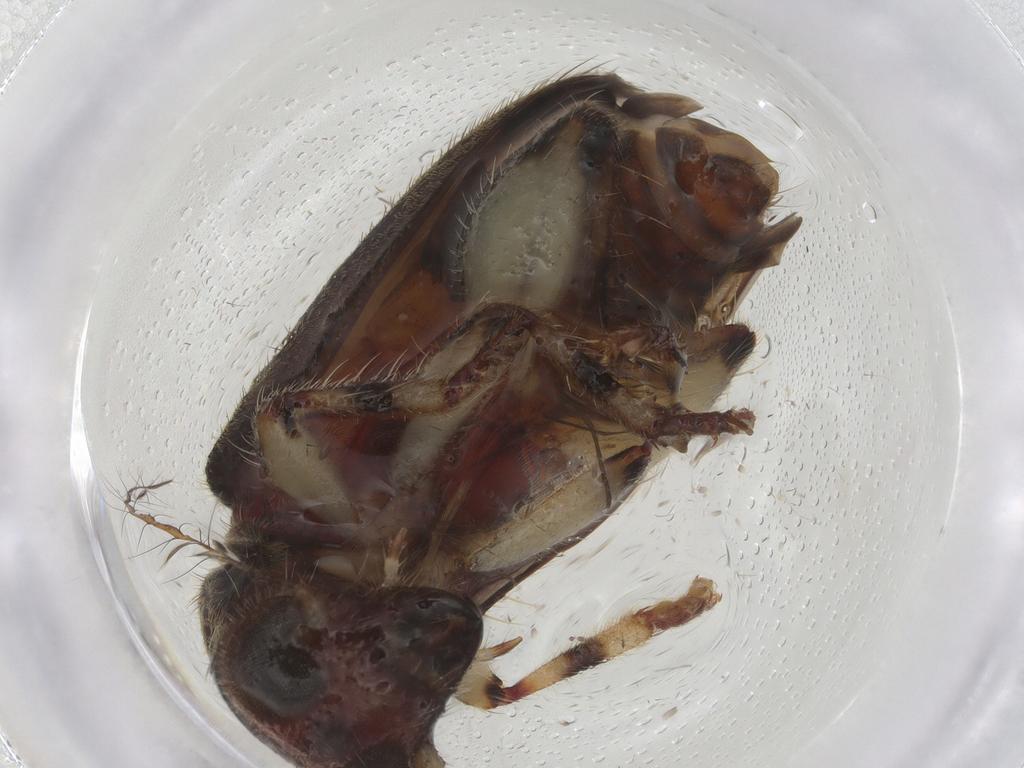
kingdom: Animalia
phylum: Arthropoda
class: Insecta
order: Coleoptera
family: Cleridae
